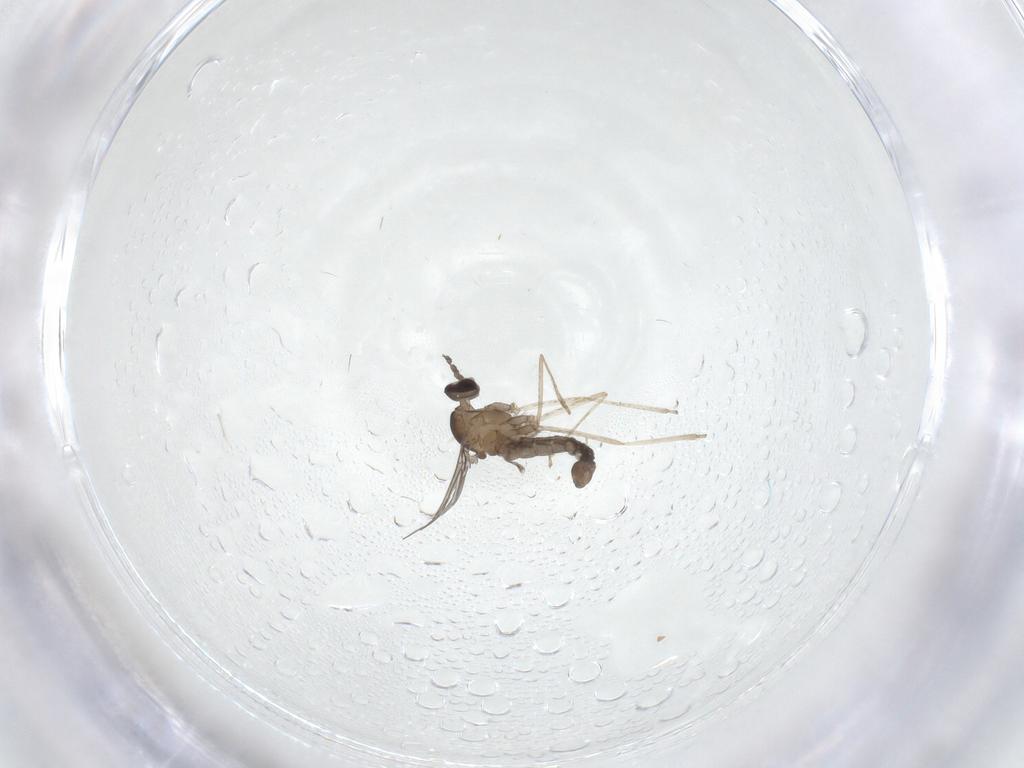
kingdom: Animalia
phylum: Arthropoda
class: Insecta
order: Diptera
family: Cecidomyiidae
